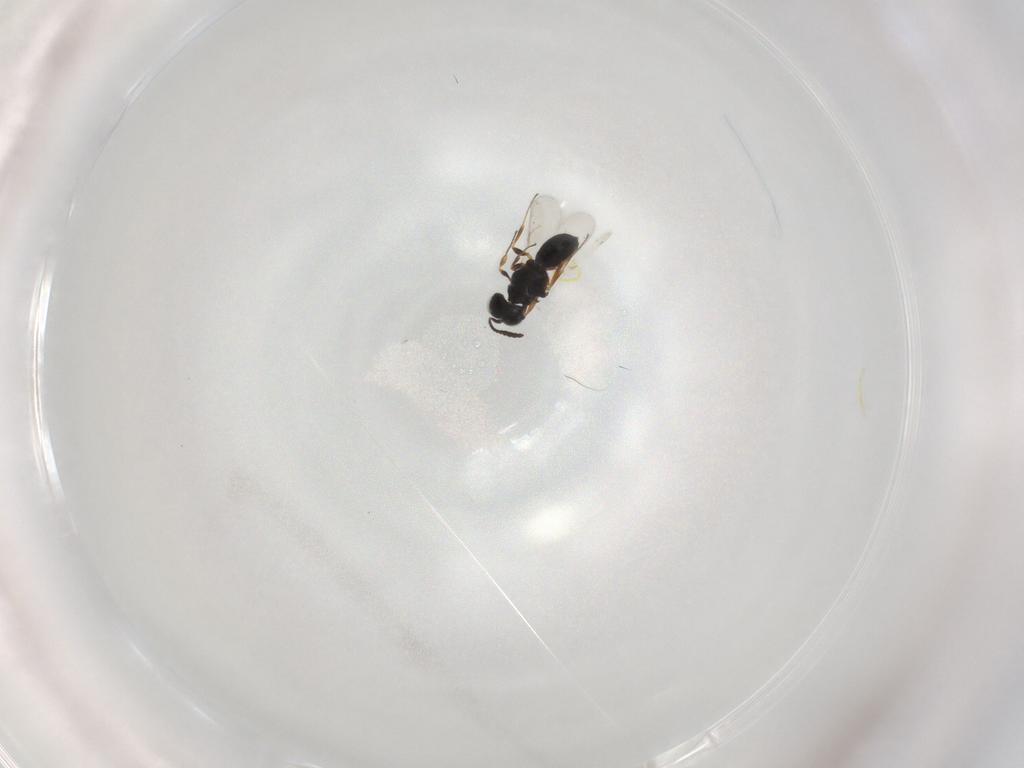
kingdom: Animalia
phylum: Arthropoda
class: Insecta
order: Hymenoptera
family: Scelionidae
